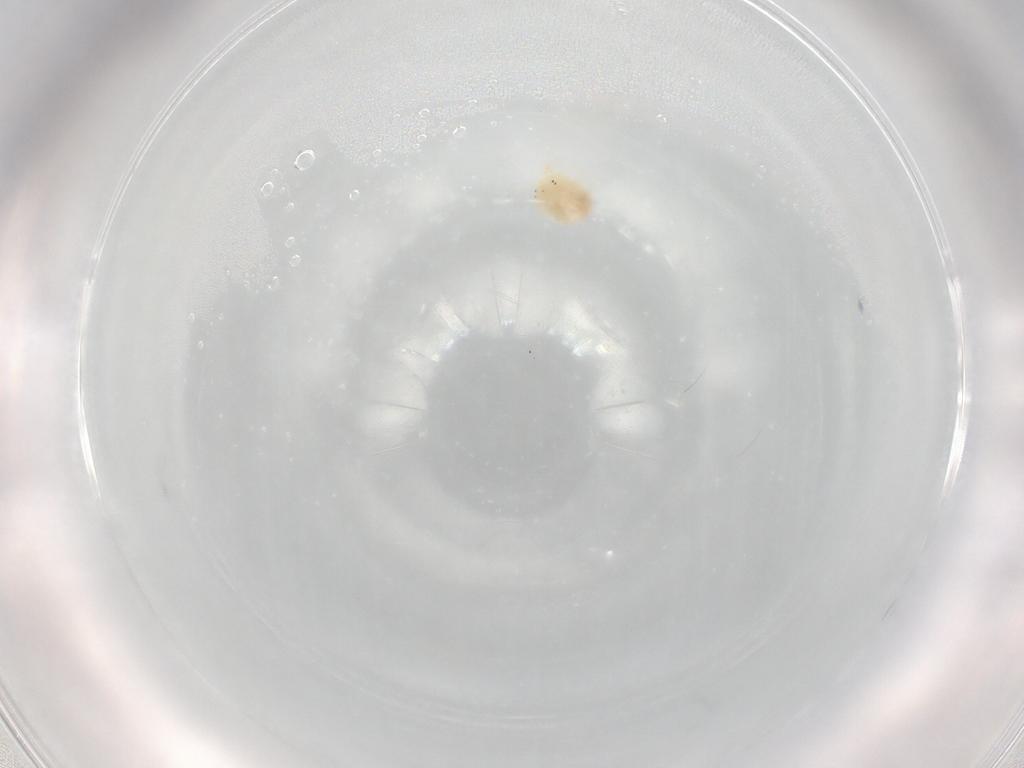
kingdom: Animalia
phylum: Arthropoda
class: Arachnida
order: Trombidiformes
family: Hydryphantidae
